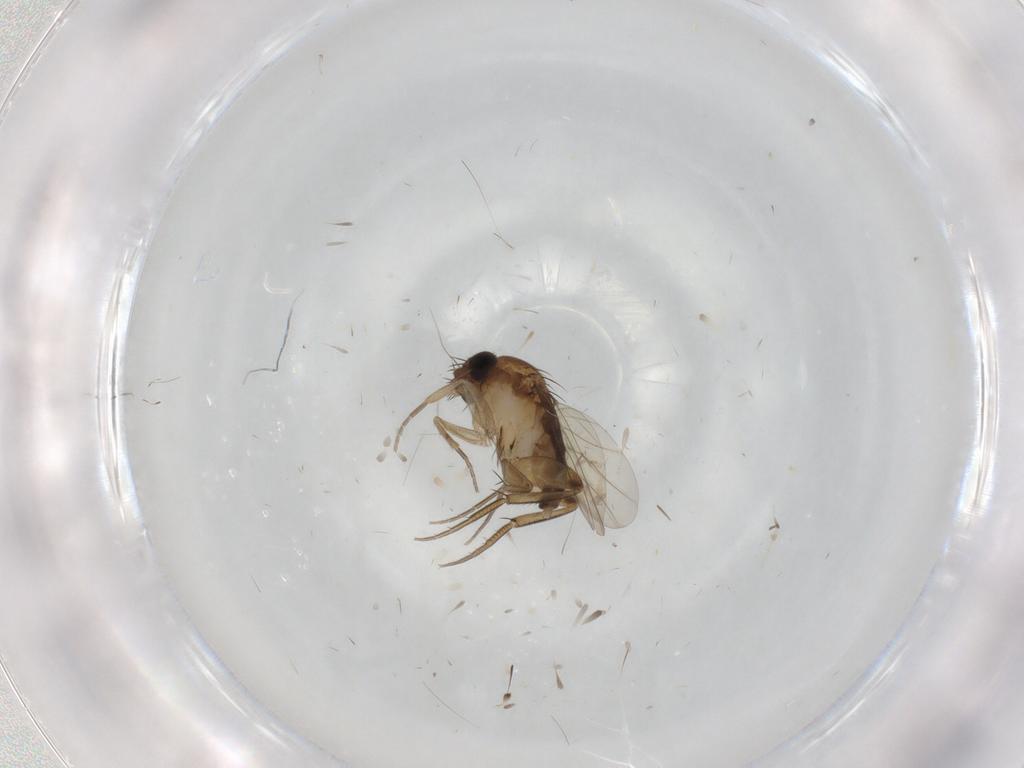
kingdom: Animalia
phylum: Arthropoda
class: Insecta
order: Diptera
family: Phoridae
